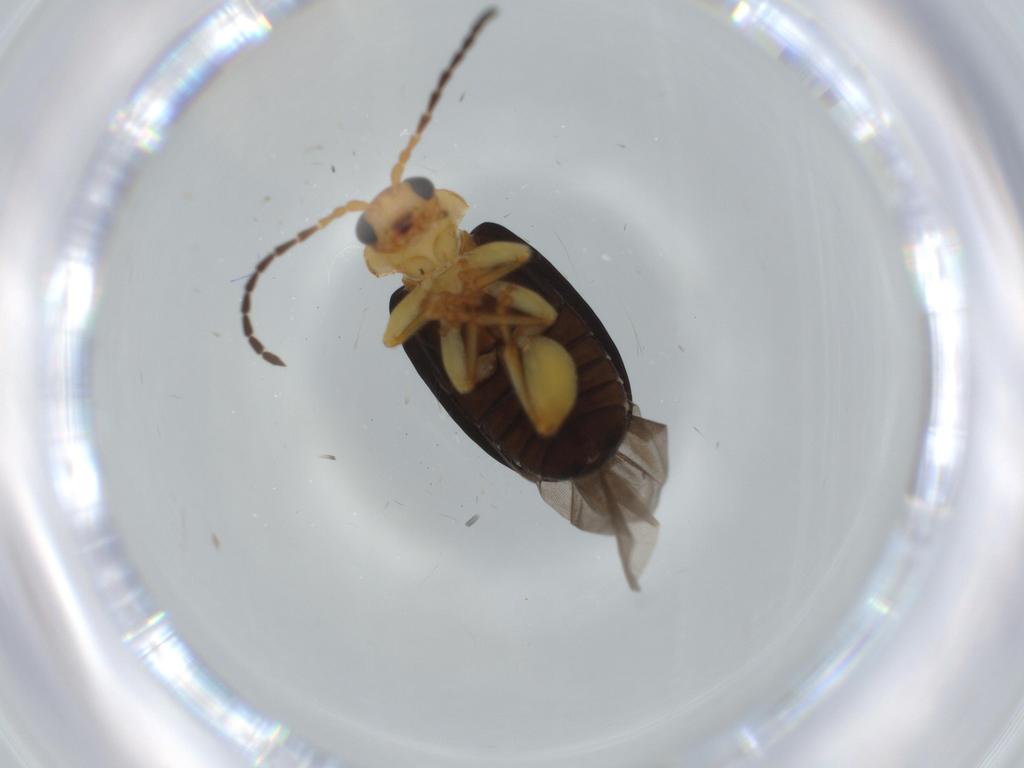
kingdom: Animalia
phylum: Arthropoda
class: Insecta
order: Coleoptera
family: Chrysomelidae
